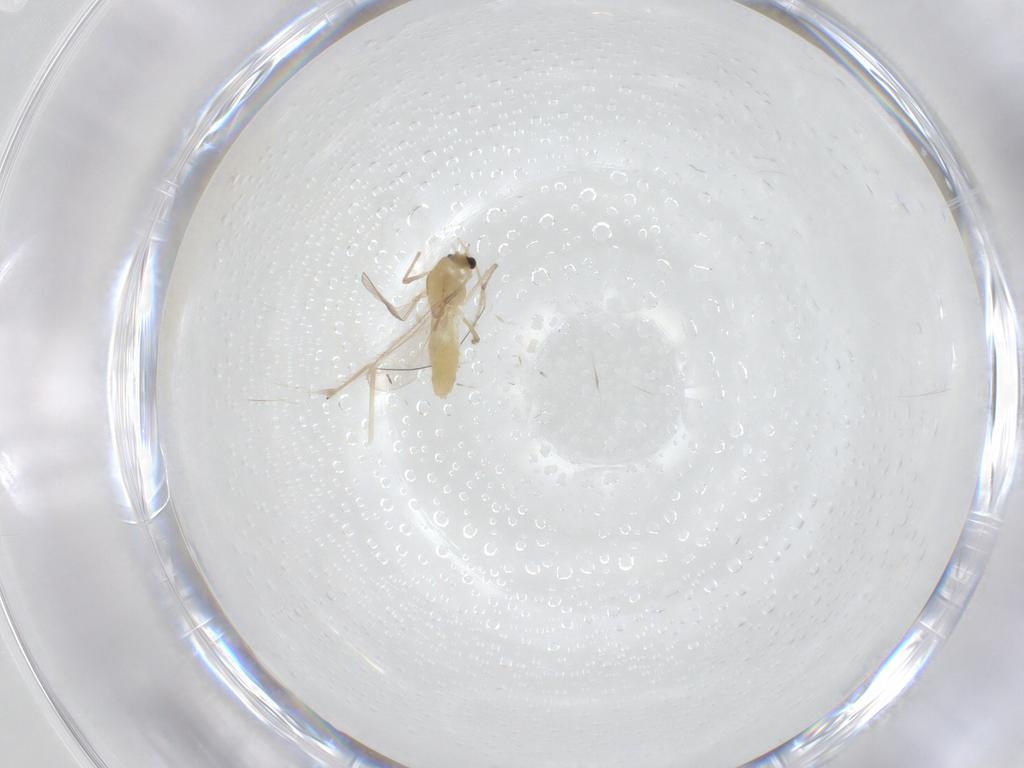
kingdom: Animalia
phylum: Arthropoda
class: Insecta
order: Diptera
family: Chironomidae
